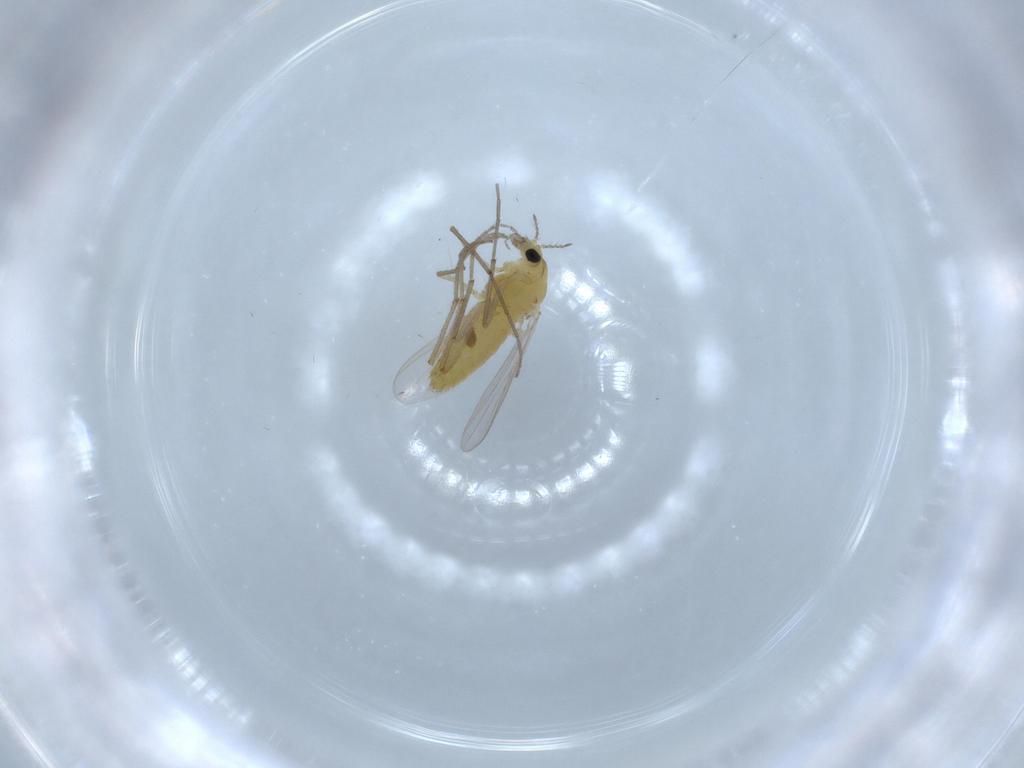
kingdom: Animalia
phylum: Arthropoda
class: Insecta
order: Diptera
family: Chironomidae
